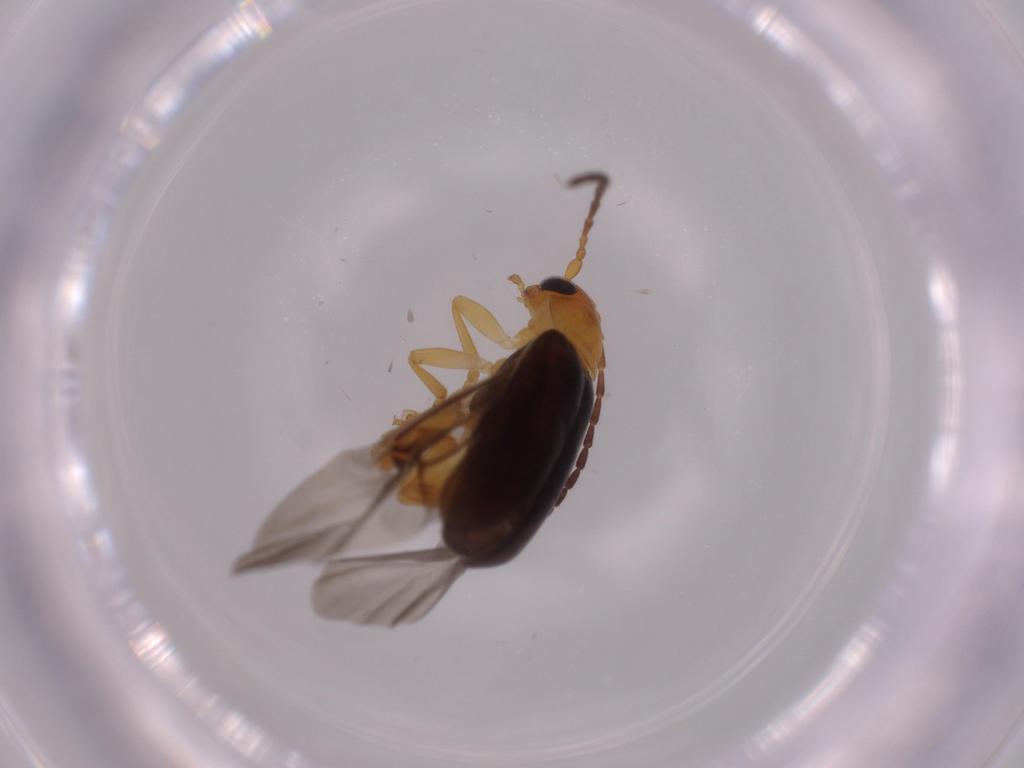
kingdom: Animalia
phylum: Arthropoda
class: Insecta
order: Coleoptera
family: Chrysomelidae
